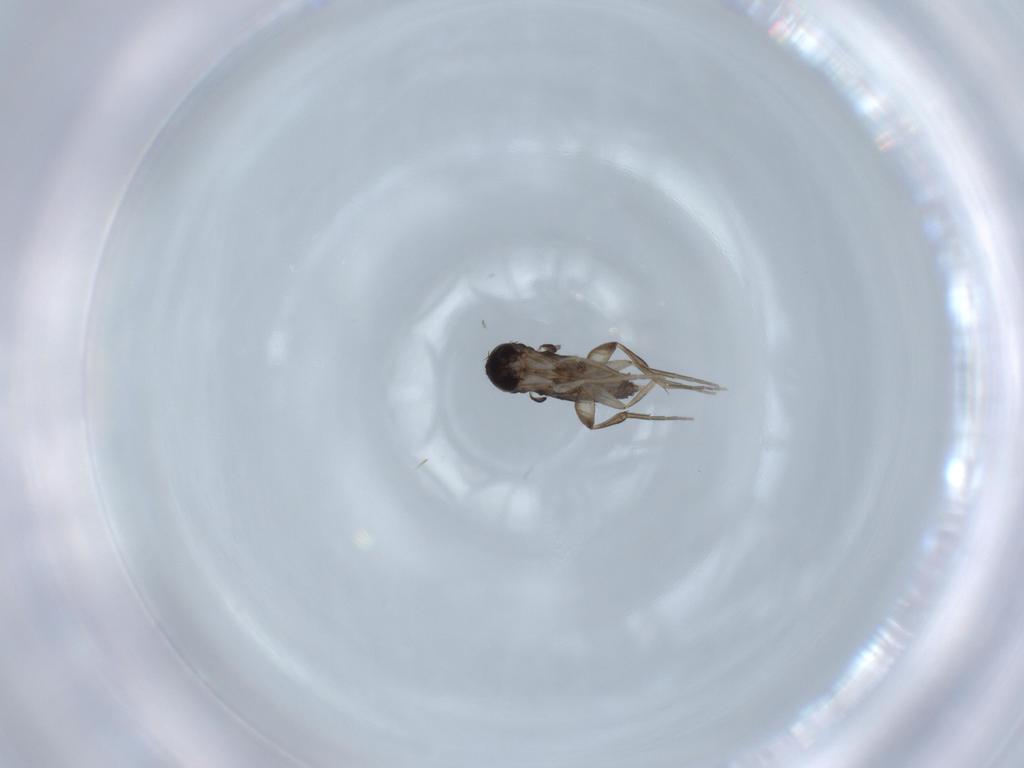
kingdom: Animalia
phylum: Arthropoda
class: Insecta
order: Diptera
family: Phoridae
